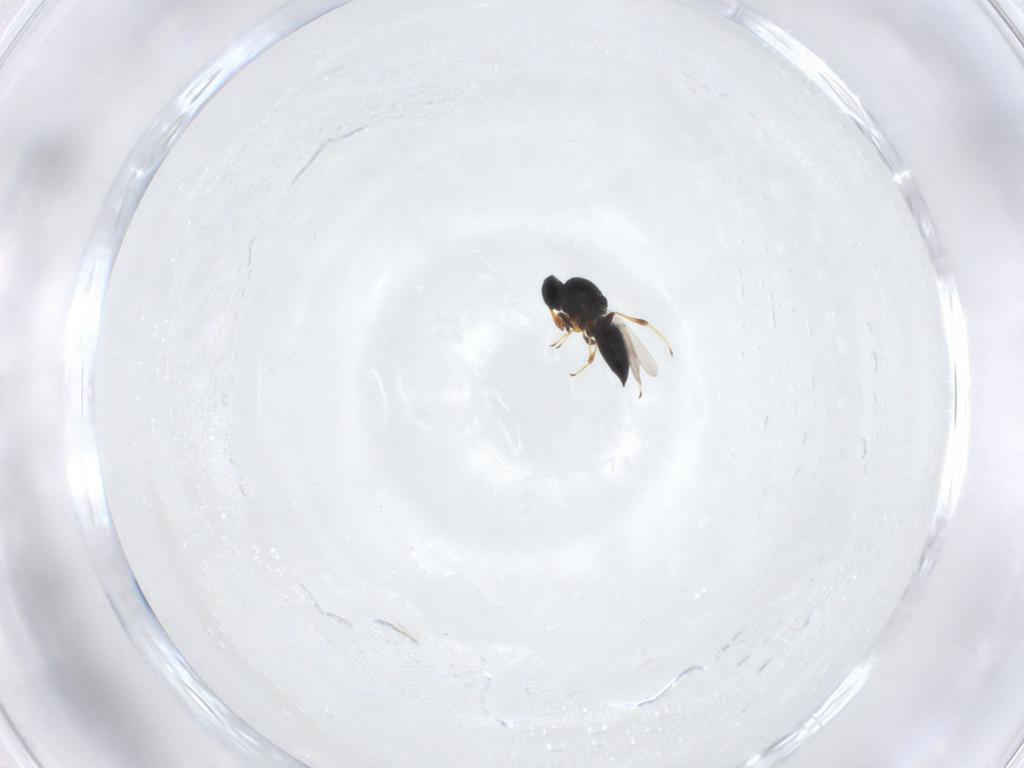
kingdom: Animalia
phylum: Arthropoda
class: Insecta
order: Hymenoptera
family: Platygastridae
